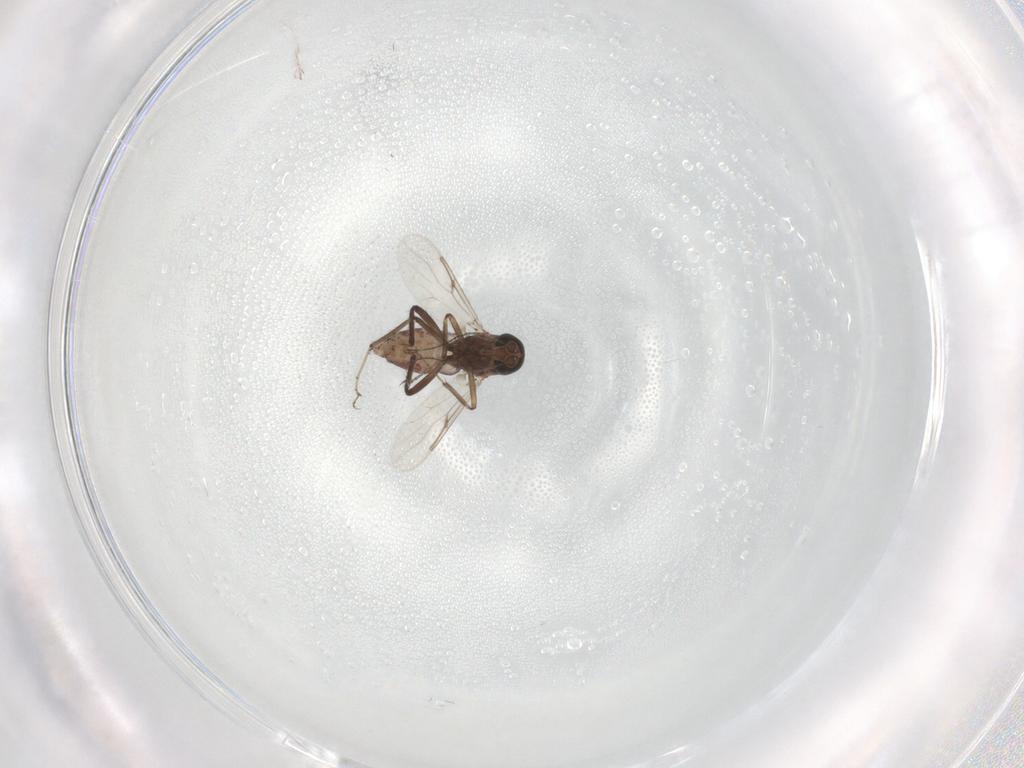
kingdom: Animalia
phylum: Arthropoda
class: Insecta
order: Diptera
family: Ceratopogonidae
